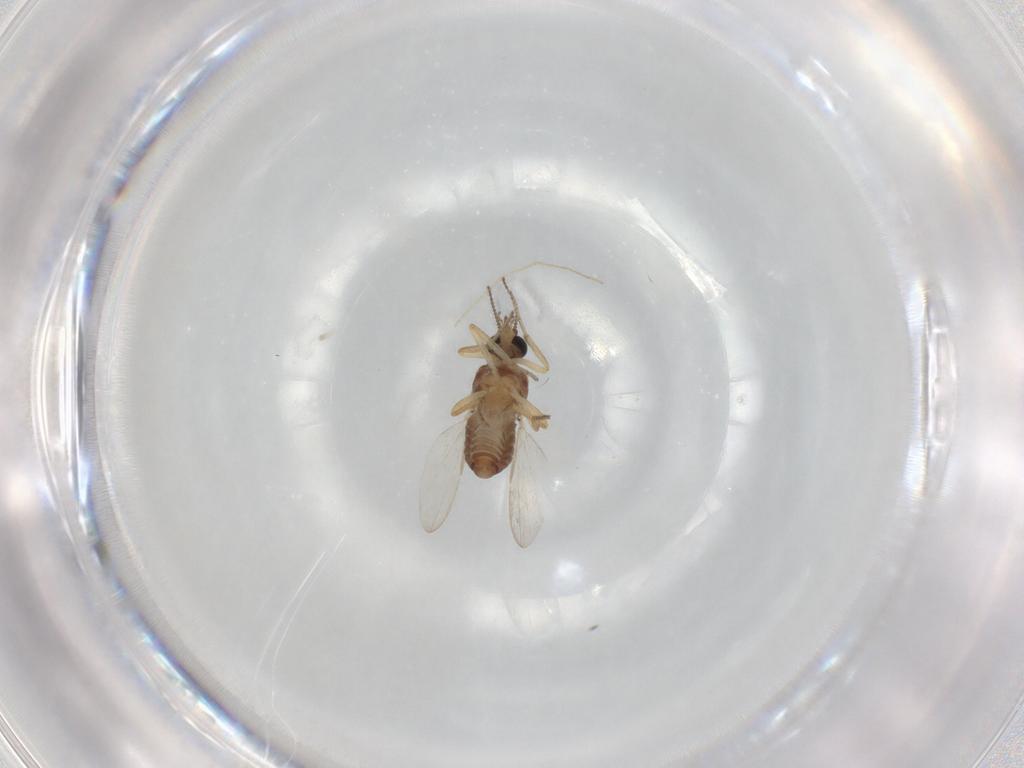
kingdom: Animalia
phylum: Arthropoda
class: Insecta
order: Diptera
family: Ceratopogonidae
